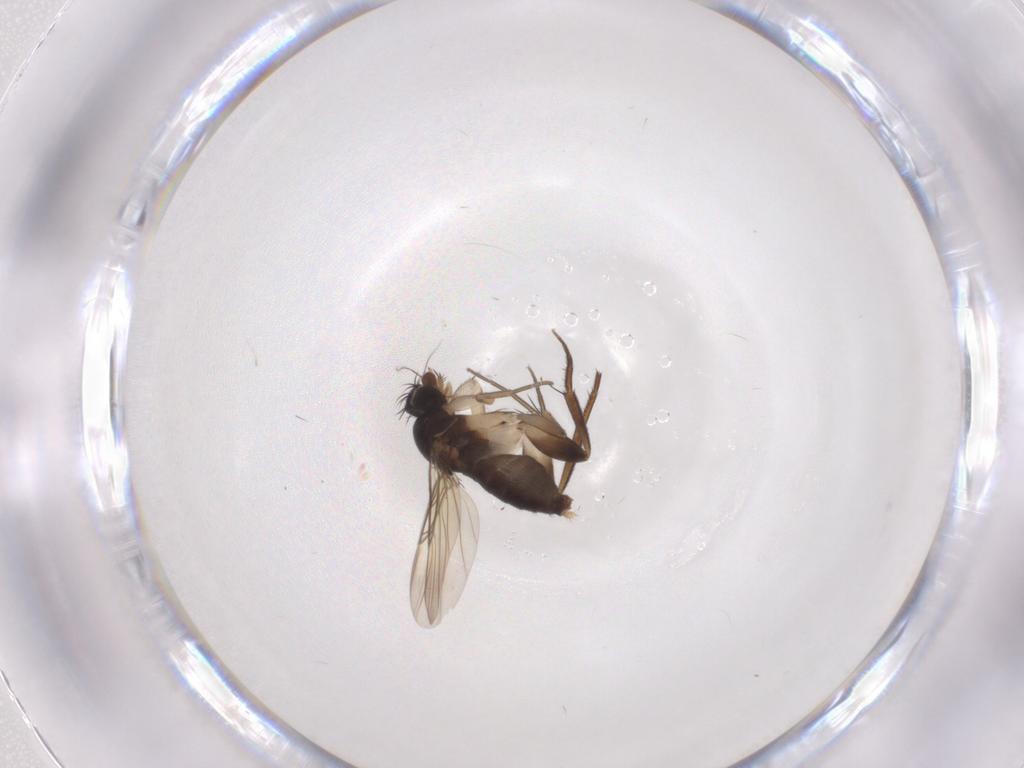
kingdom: Animalia
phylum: Arthropoda
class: Insecta
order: Diptera
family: Phoridae
